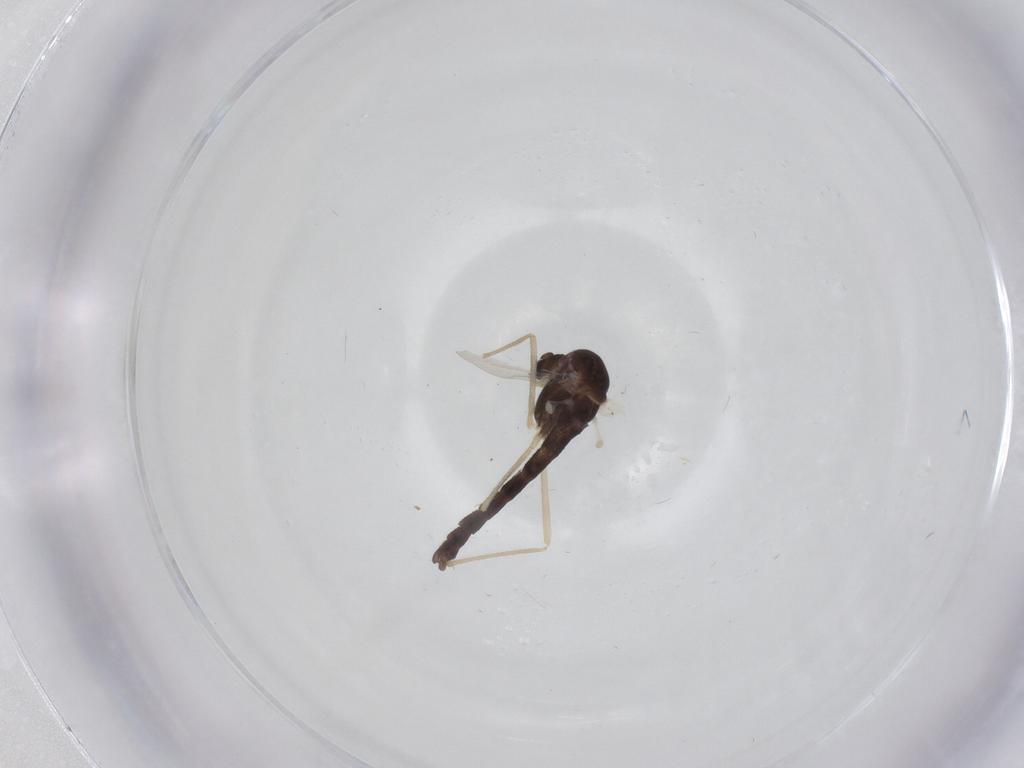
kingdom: Animalia
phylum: Arthropoda
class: Insecta
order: Diptera
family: Chironomidae
